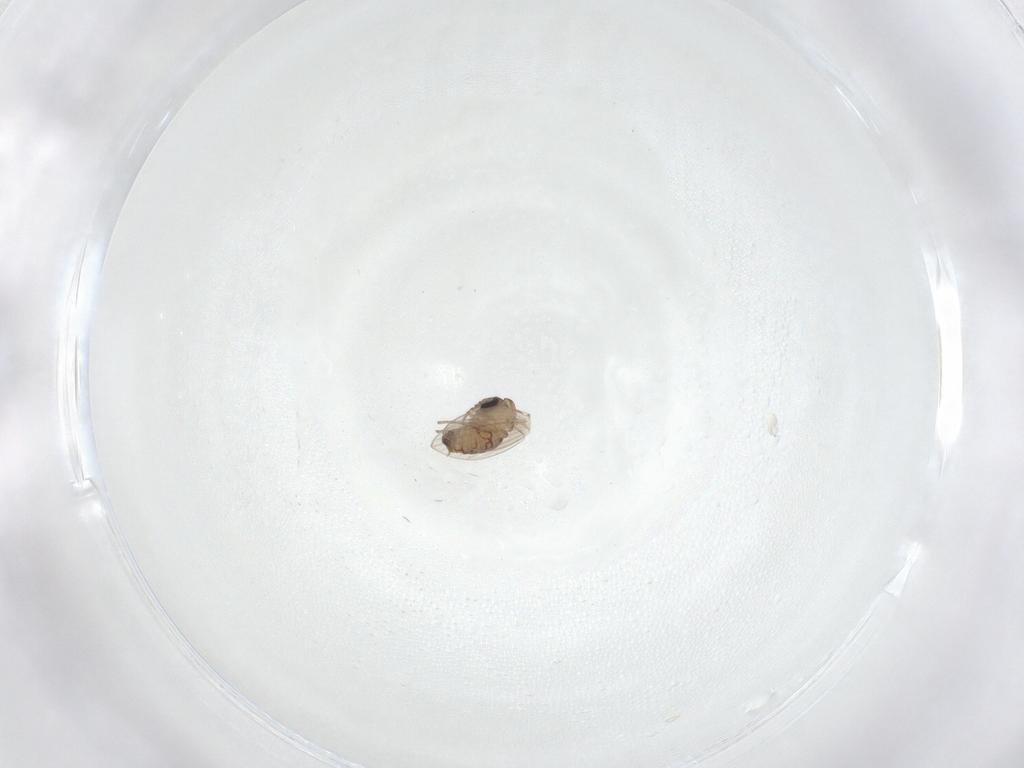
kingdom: Animalia
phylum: Arthropoda
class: Insecta
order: Diptera
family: Psychodidae
